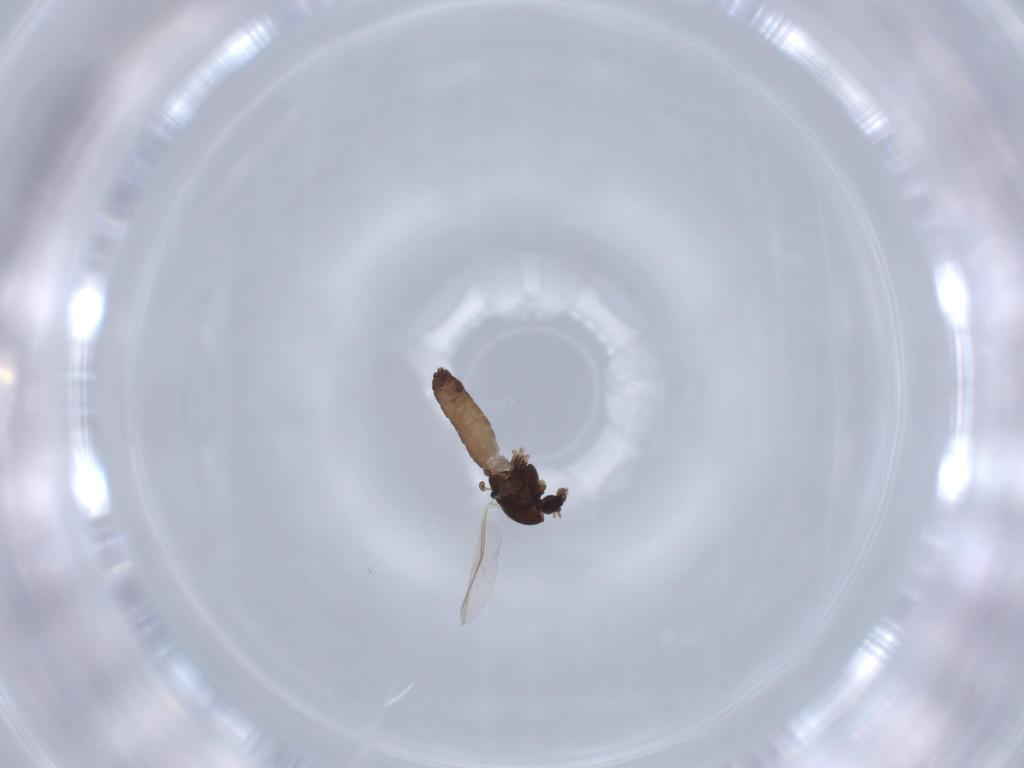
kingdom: Animalia
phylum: Arthropoda
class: Insecta
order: Diptera
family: Chironomidae
